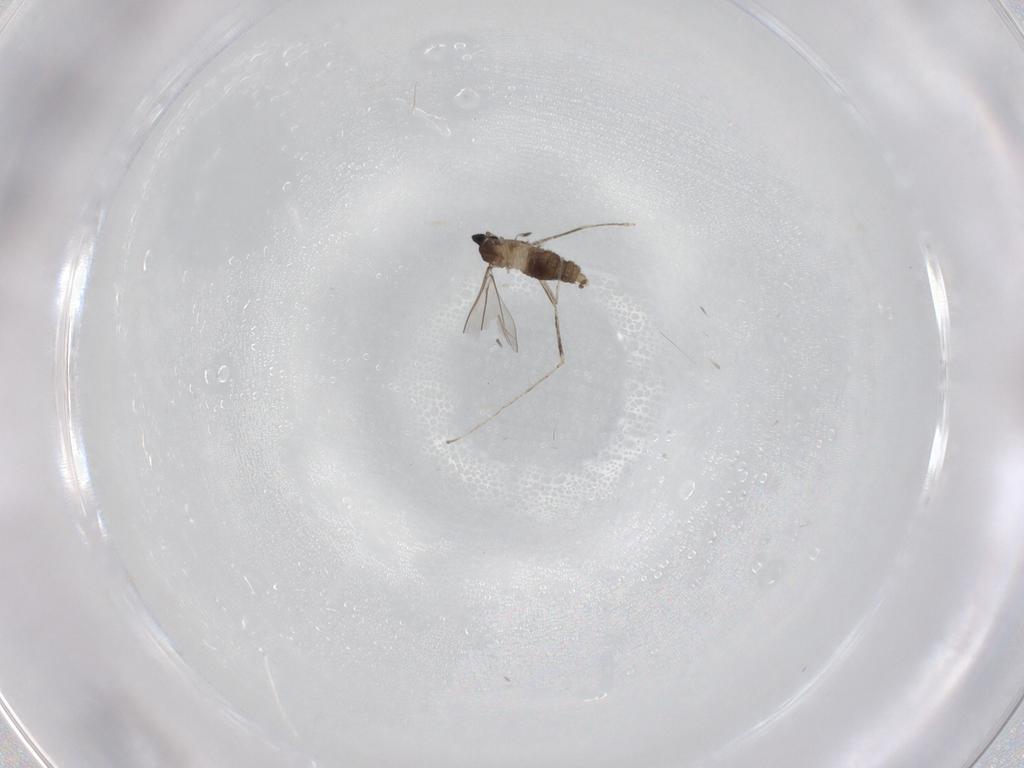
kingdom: Animalia
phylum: Arthropoda
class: Insecta
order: Diptera
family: Cecidomyiidae
